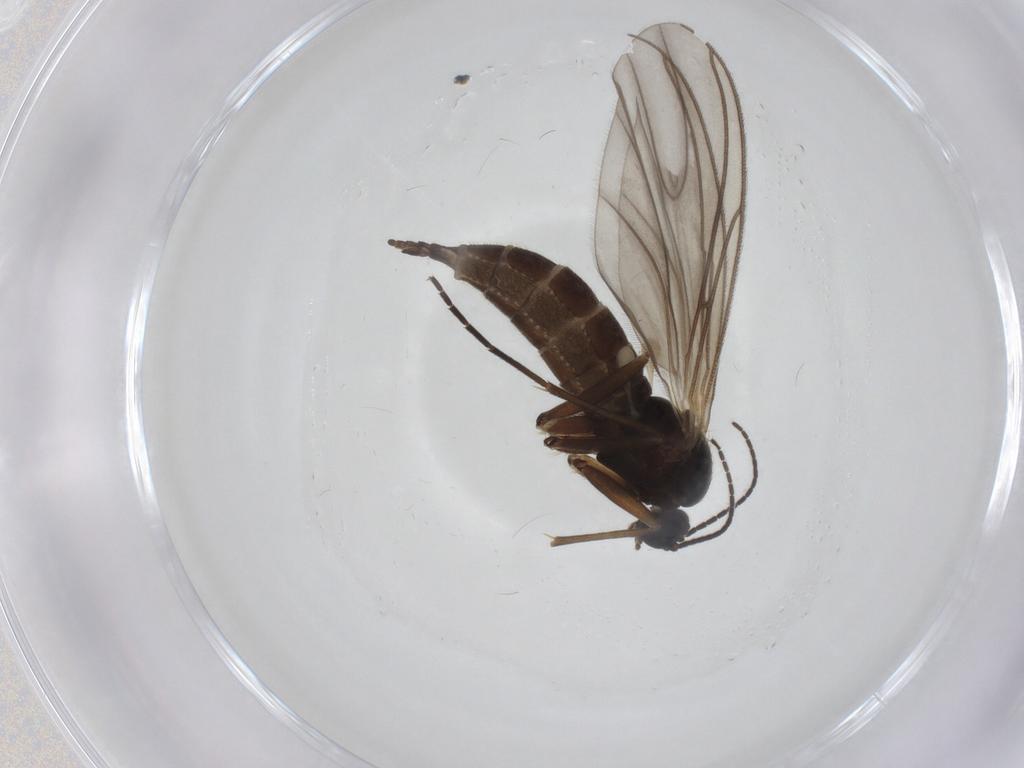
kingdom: Animalia
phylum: Arthropoda
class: Insecta
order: Diptera
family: Sciaridae
